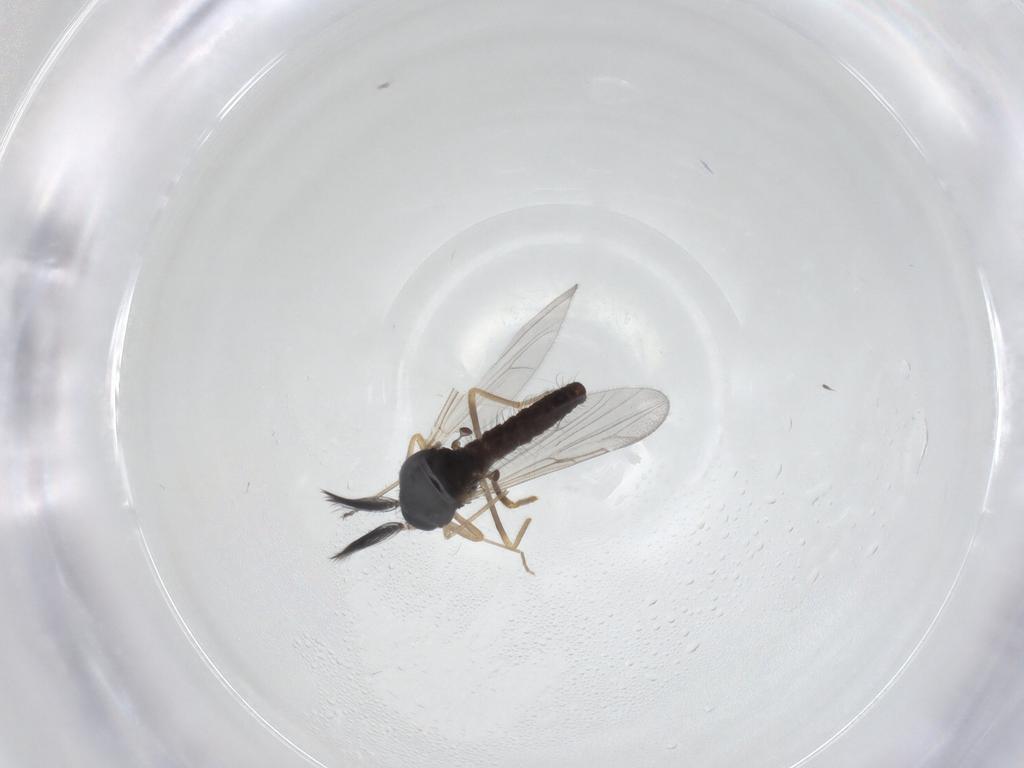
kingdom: Animalia
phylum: Arthropoda
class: Insecta
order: Diptera
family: Ceratopogonidae
